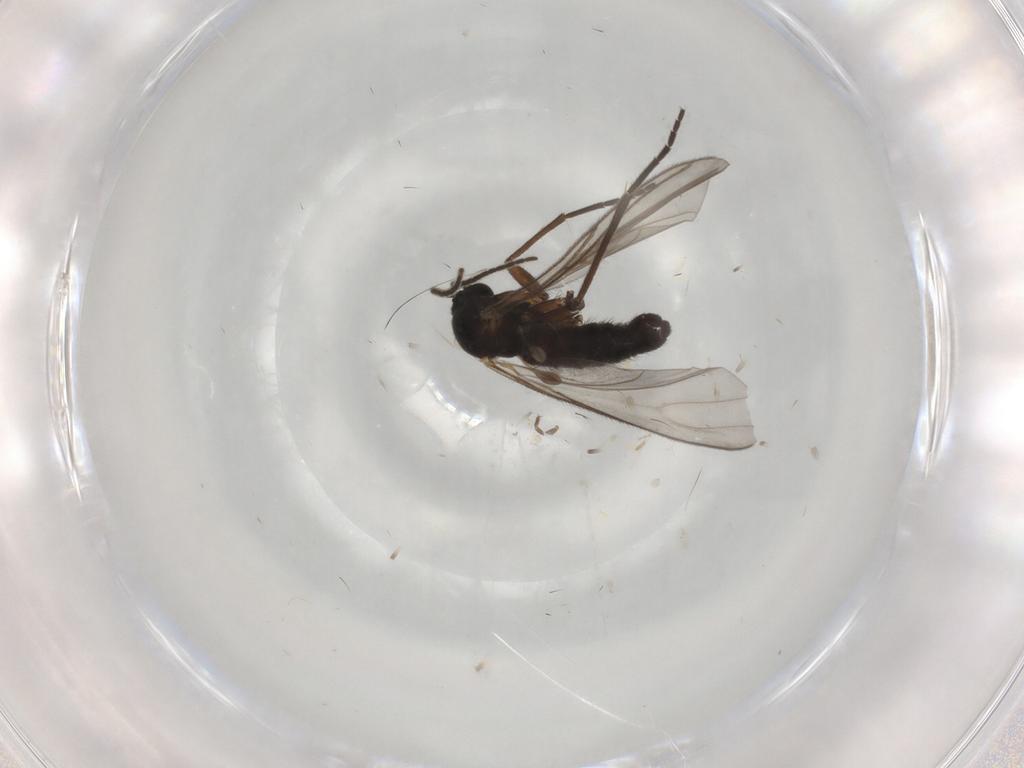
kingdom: Animalia
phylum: Arthropoda
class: Insecta
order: Diptera
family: Sciaridae
